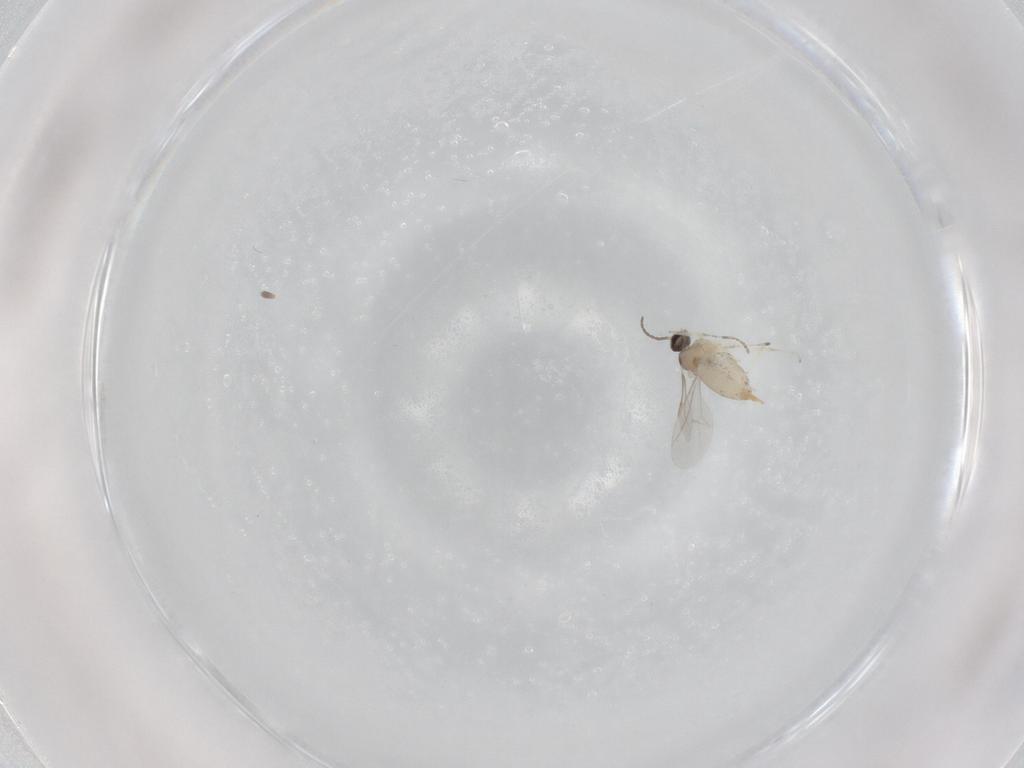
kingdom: Animalia
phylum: Arthropoda
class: Insecta
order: Diptera
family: Cecidomyiidae
